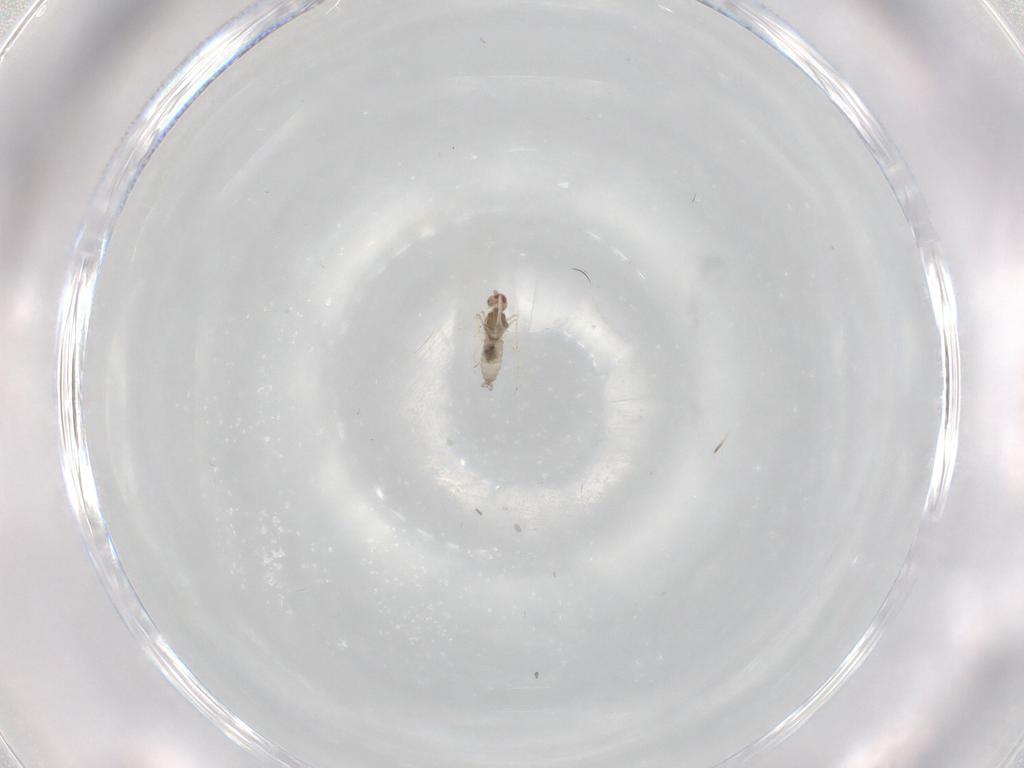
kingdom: Animalia
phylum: Arthropoda
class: Insecta
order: Diptera
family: Cecidomyiidae
